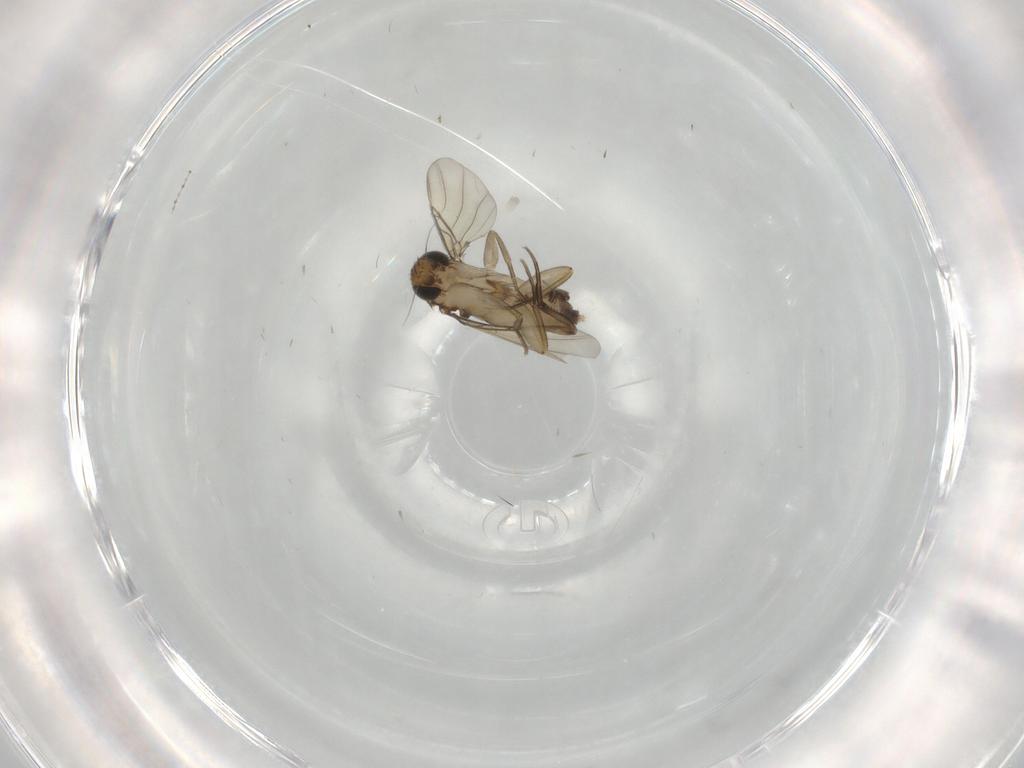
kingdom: Animalia
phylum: Arthropoda
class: Insecta
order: Diptera
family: Phoridae
